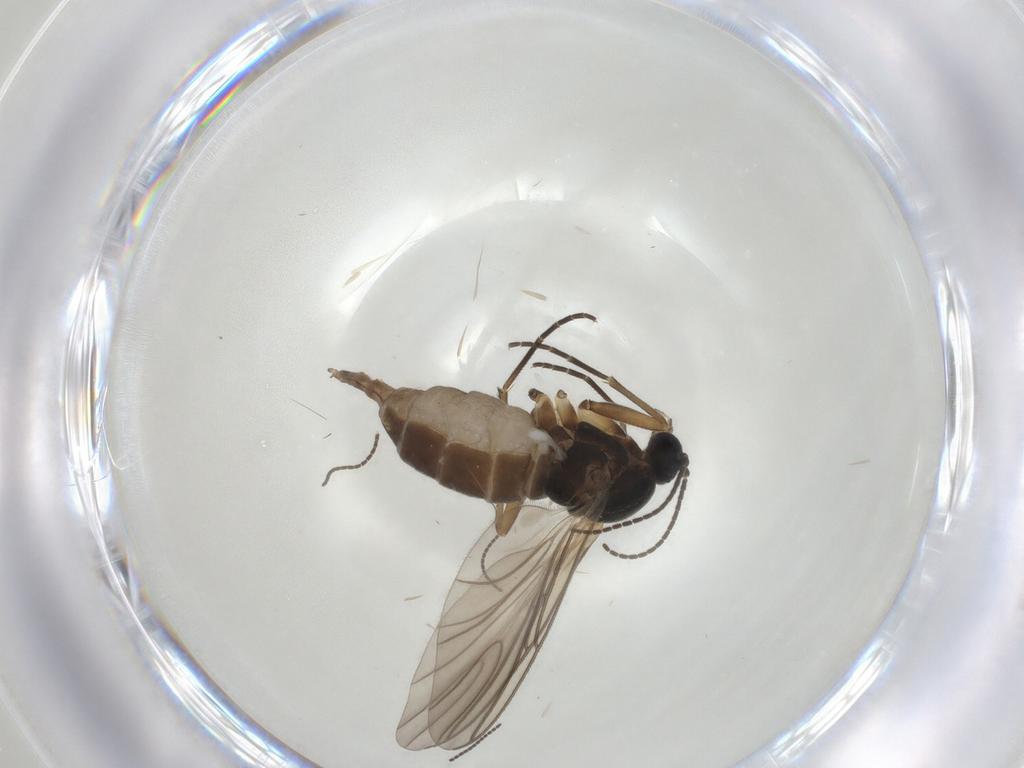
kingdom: Animalia
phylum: Arthropoda
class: Insecta
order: Diptera
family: Sciaridae
